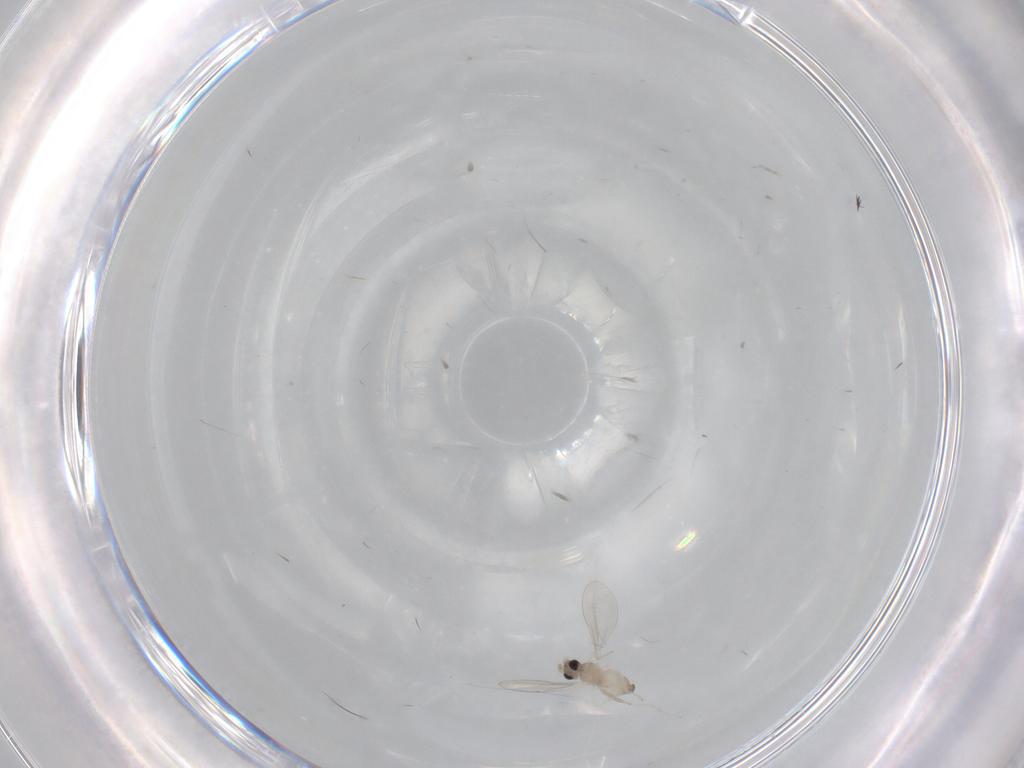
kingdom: Animalia
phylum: Arthropoda
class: Insecta
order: Diptera
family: Cecidomyiidae
